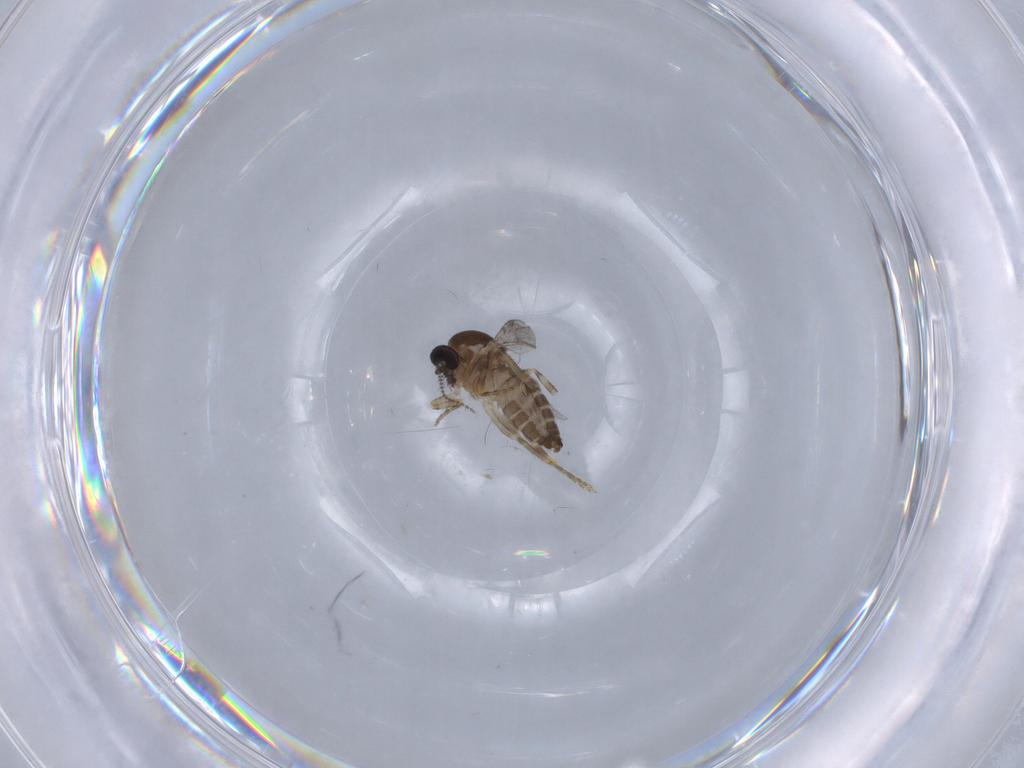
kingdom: Animalia
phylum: Arthropoda
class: Insecta
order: Diptera
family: Ceratopogonidae
